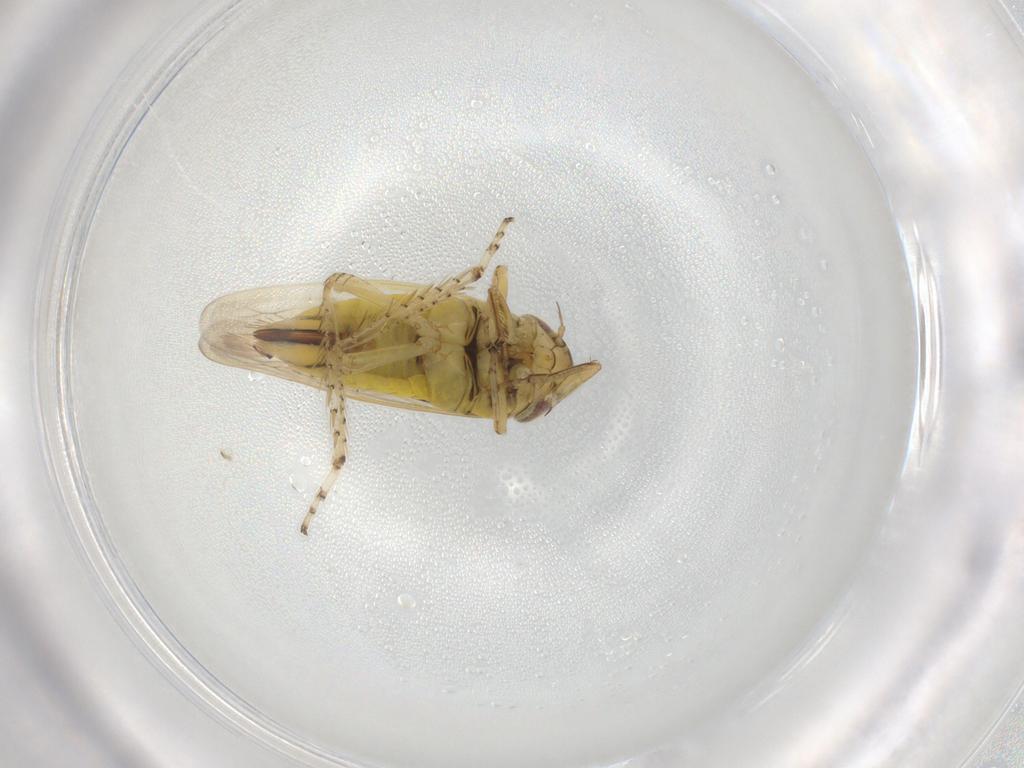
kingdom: Animalia
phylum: Arthropoda
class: Insecta
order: Hemiptera
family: Cicadellidae
